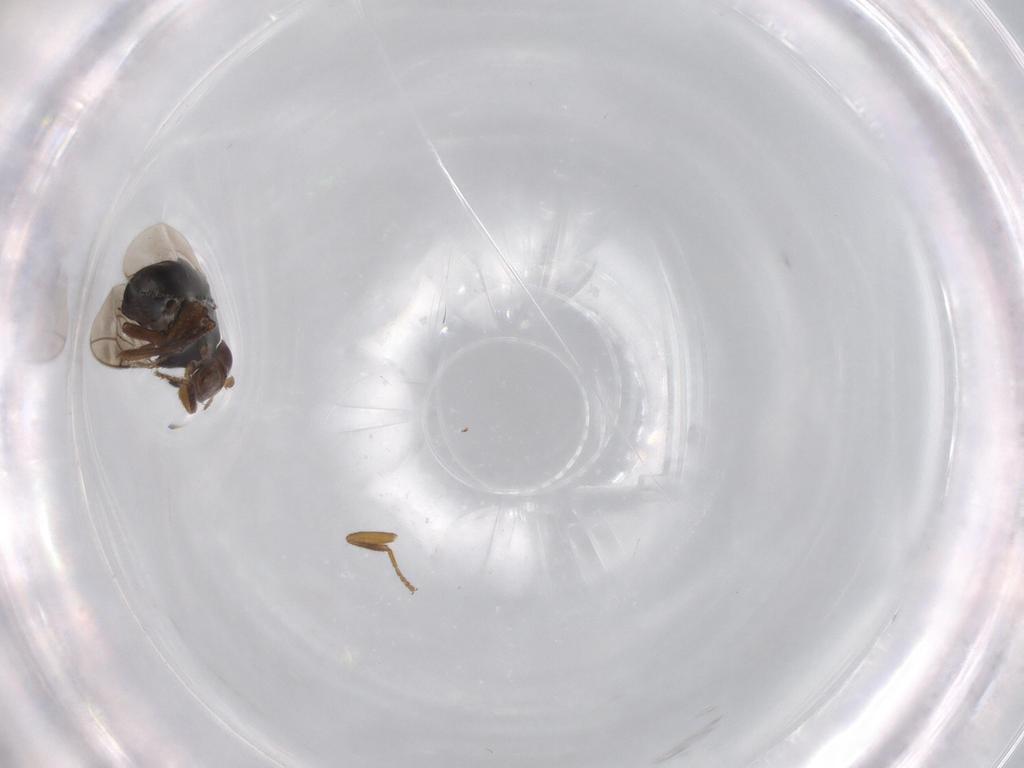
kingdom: Animalia
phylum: Arthropoda
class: Insecta
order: Diptera
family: Sphaeroceridae
